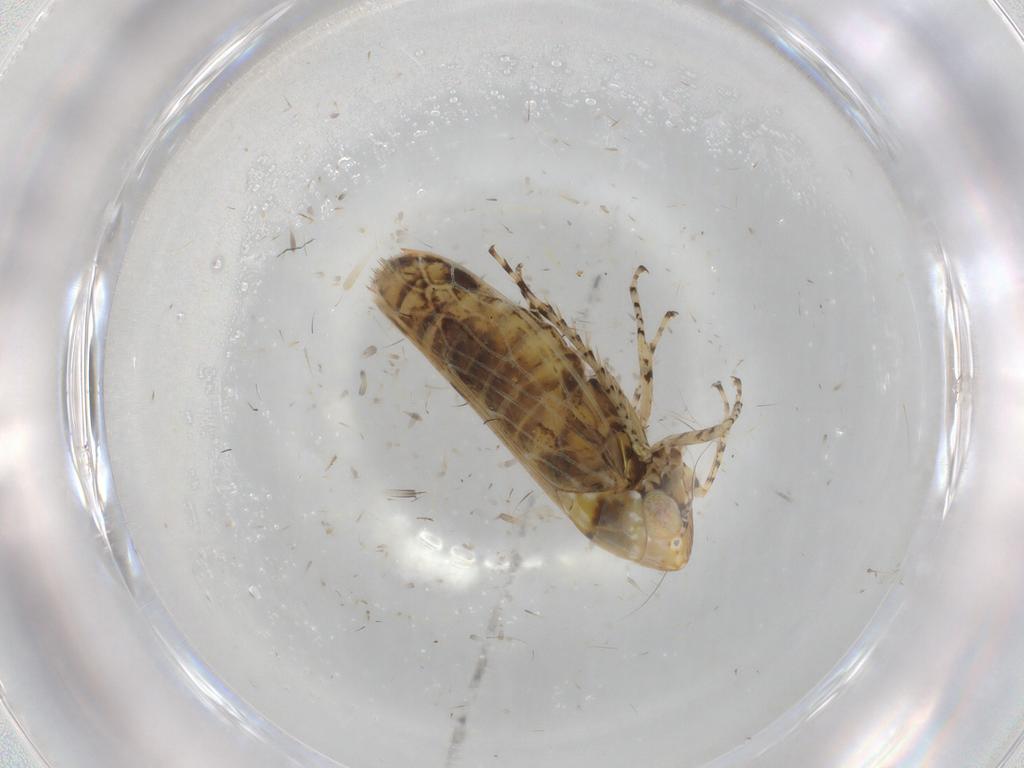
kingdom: Animalia
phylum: Arthropoda
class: Insecta
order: Hemiptera
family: Cicadellidae
